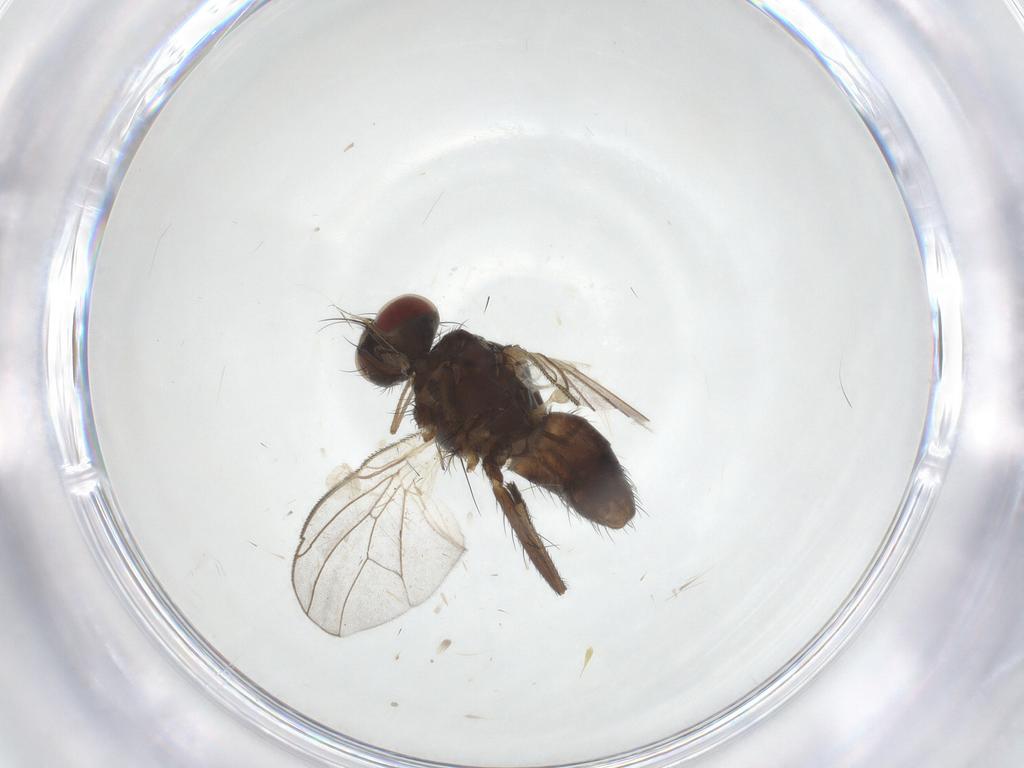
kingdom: Animalia
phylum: Arthropoda
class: Insecta
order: Diptera
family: Sciaridae
